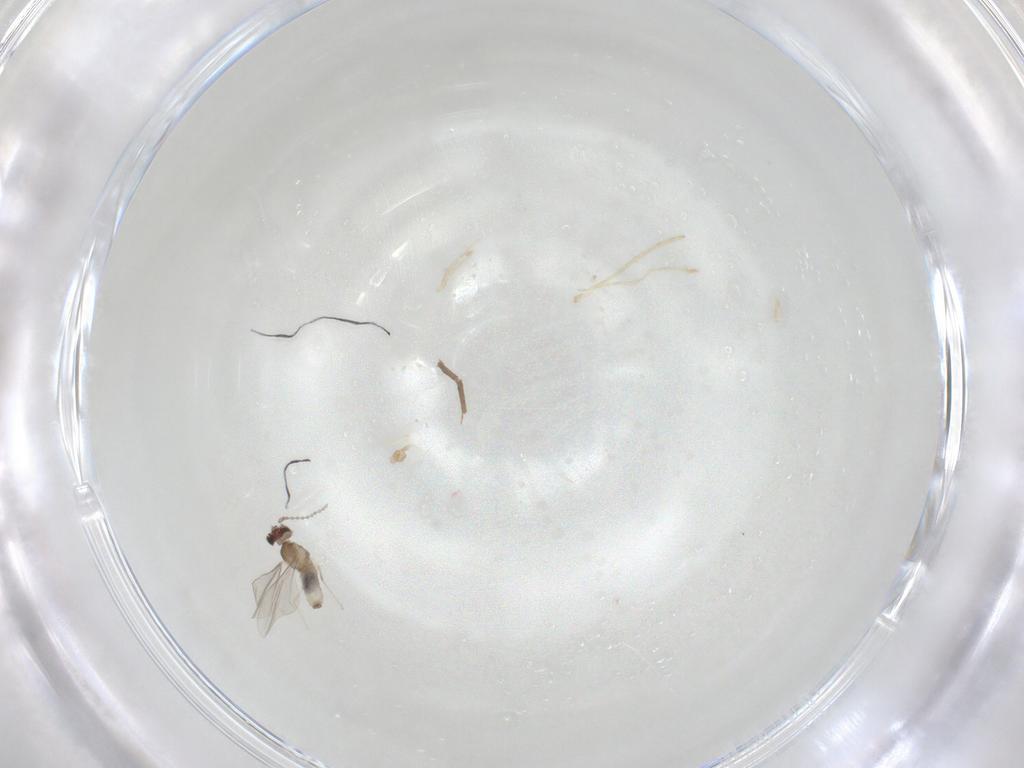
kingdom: Animalia
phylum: Arthropoda
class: Insecta
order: Diptera
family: Cecidomyiidae
